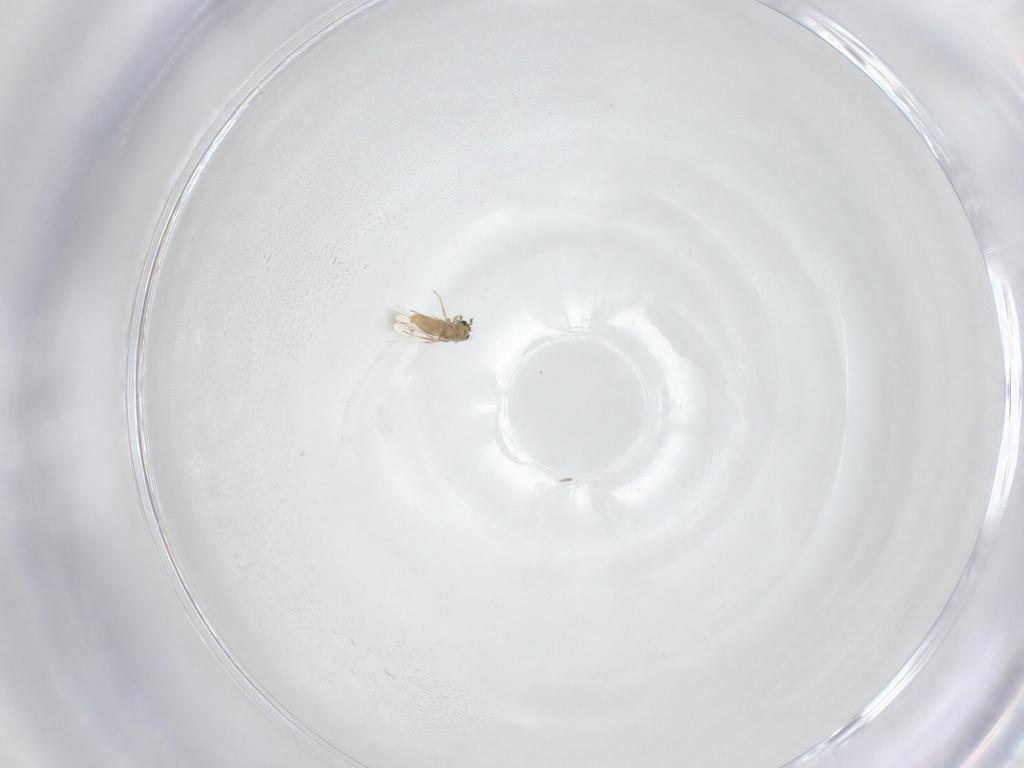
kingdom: Animalia
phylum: Arthropoda
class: Insecta
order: Hymenoptera
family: Trichogrammatidae
